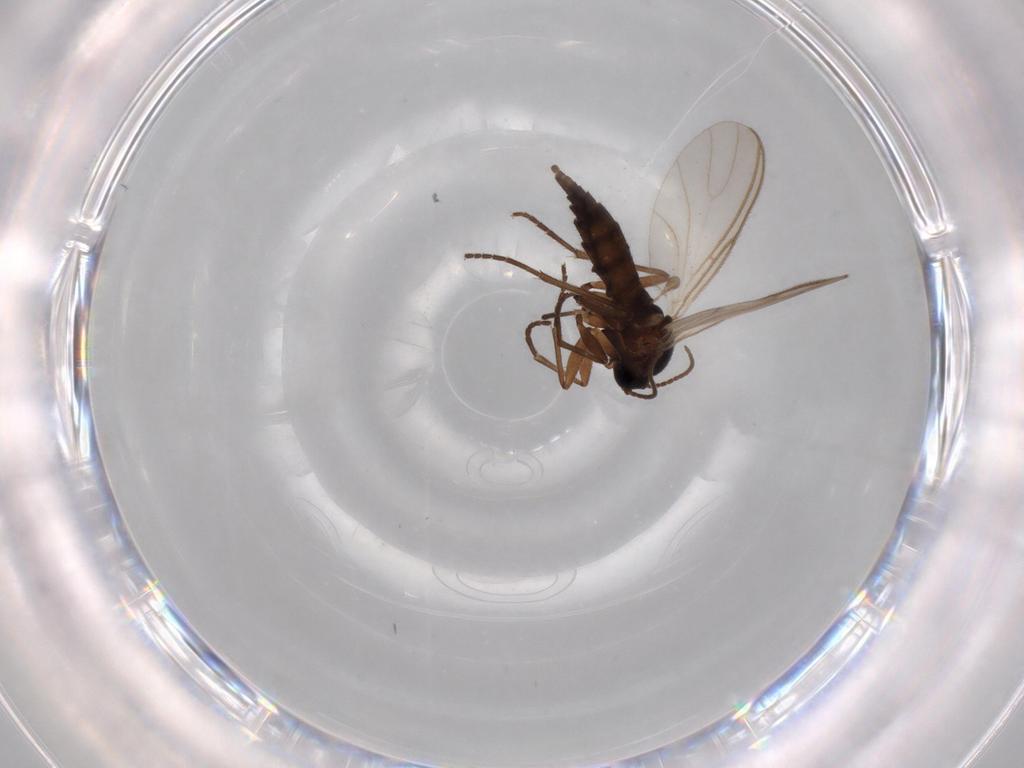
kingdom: Animalia
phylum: Arthropoda
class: Insecta
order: Diptera
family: Sciaridae
